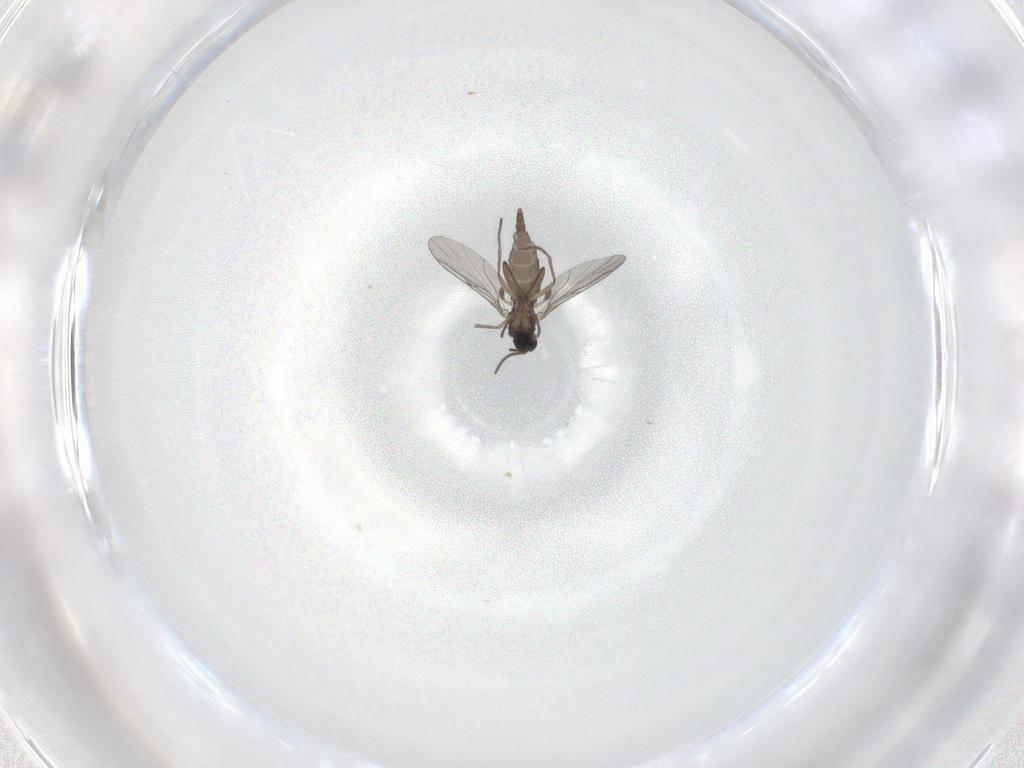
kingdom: Animalia
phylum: Arthropoda
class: Insecta
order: Diptera
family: Sciaridae
